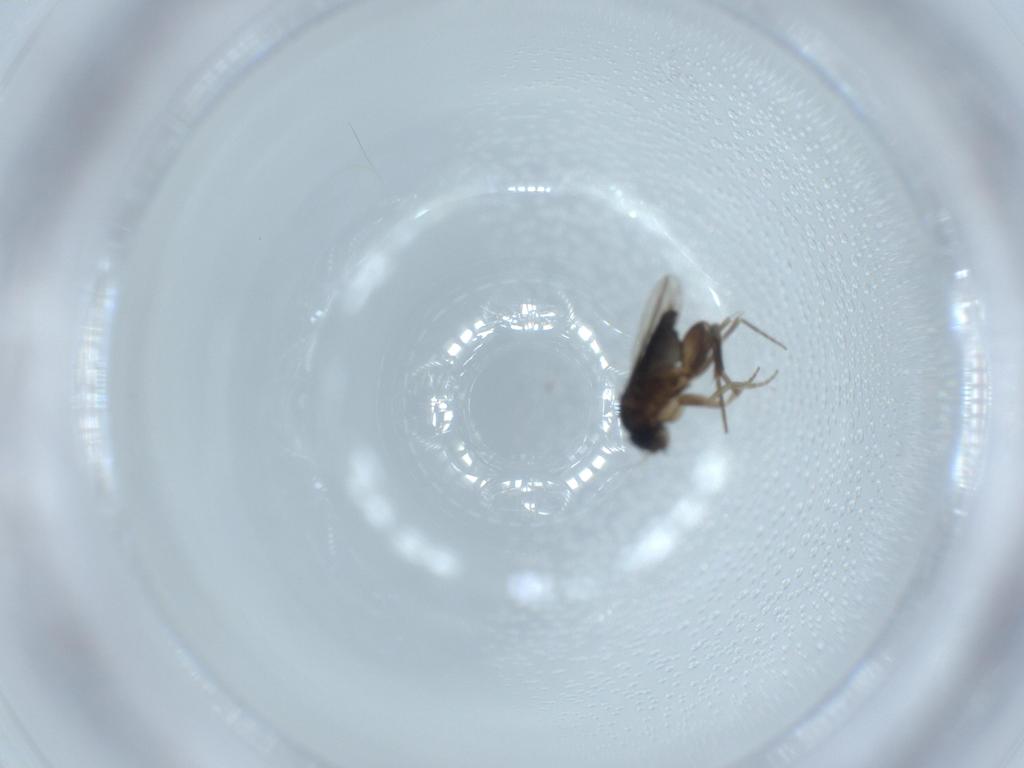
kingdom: Animalia
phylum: Arthropoda
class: Insecta
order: Diptera
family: Phoridae
